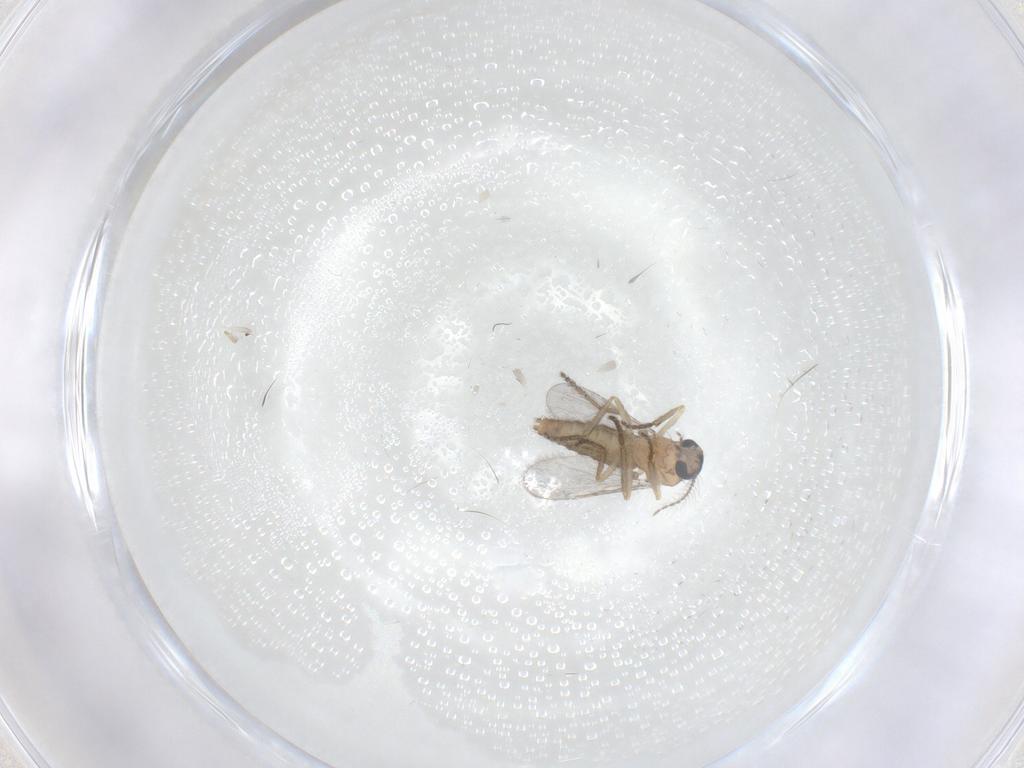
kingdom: Animalia
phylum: Arthropoda
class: Insecta
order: Diptera
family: Ceratopogonidae
